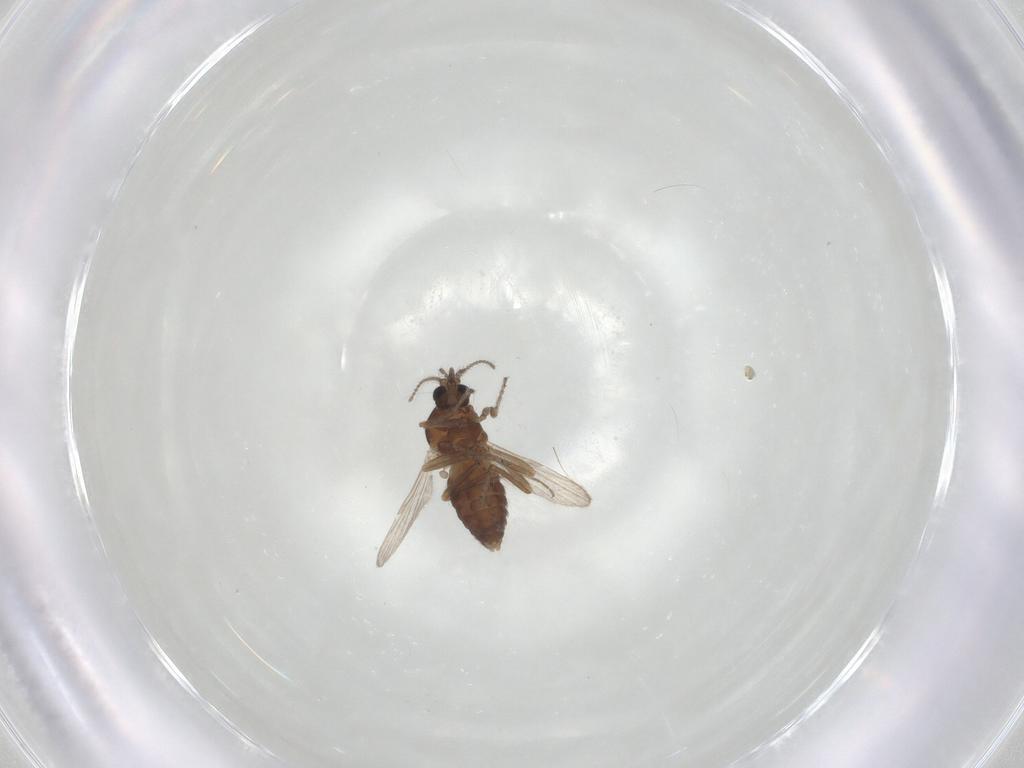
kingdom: Animalia
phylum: Arthropoda
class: Insecta
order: Diptera
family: Ceratopogonidae
